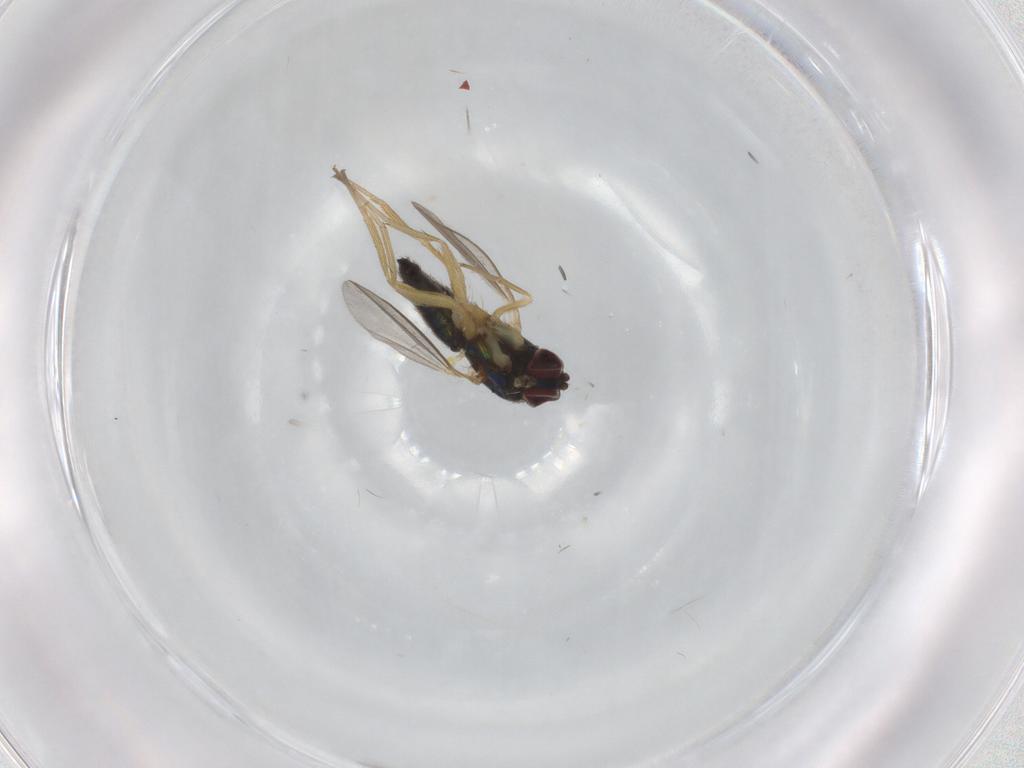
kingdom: Animalia
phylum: Arthropoda
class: Insecta
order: Diptera
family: Dolichopodidae
